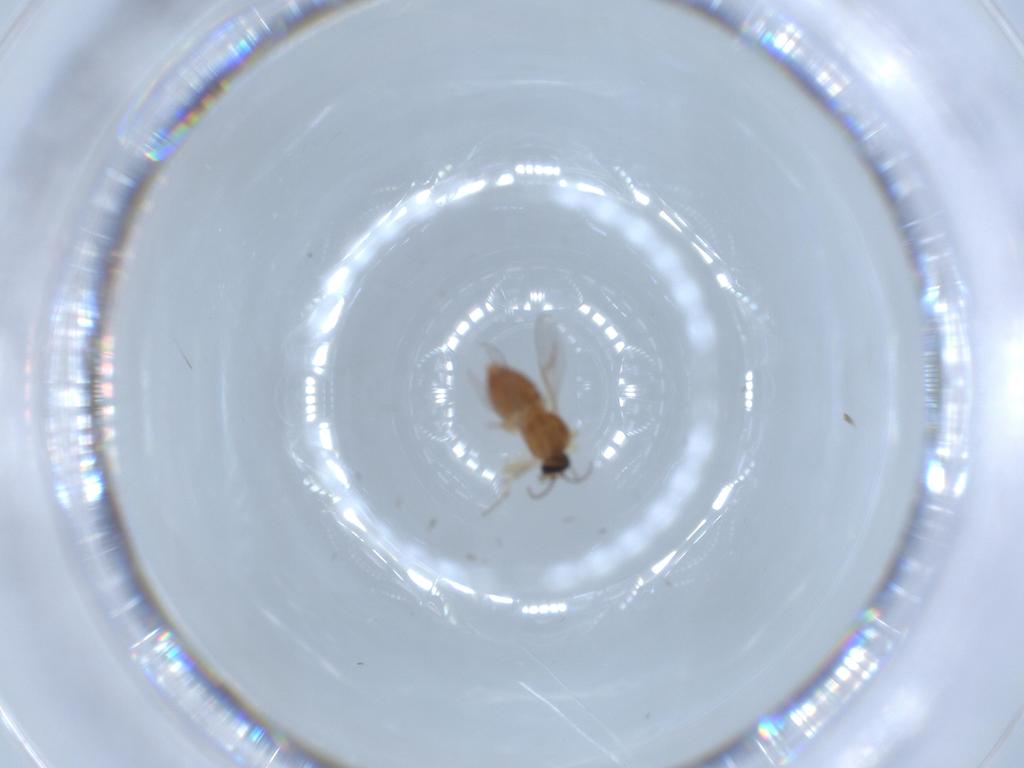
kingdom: Animalia
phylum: Arthropoda
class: Insecta
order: Diptera
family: Ceratopogonidae
